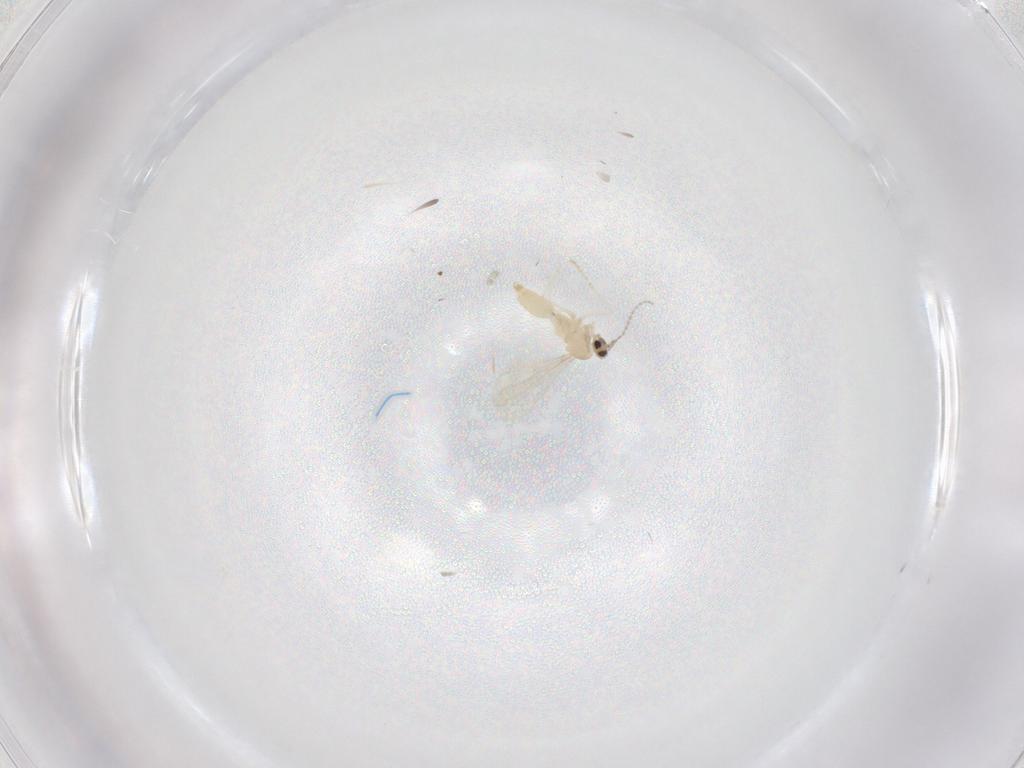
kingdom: Animalia
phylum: Arthropoda
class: Insecta
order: Diptera
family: Cecidomyiidae
